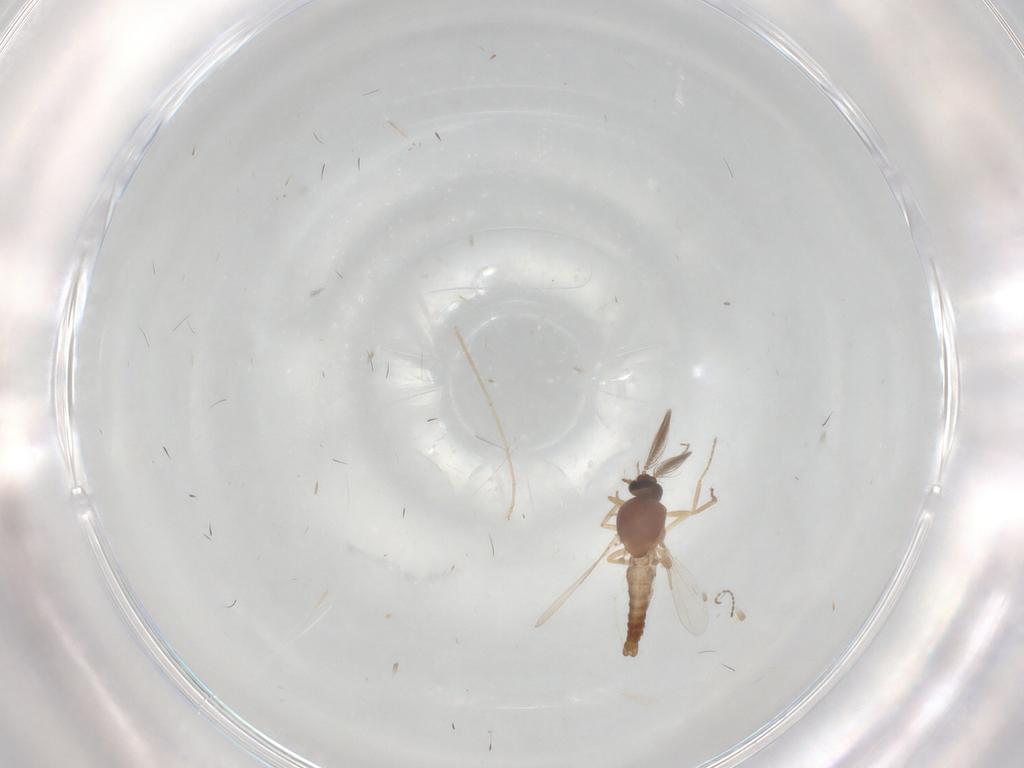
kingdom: Animalia
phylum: Arthropoda
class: Insecta
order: Diptera
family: Ceratopogonidae
